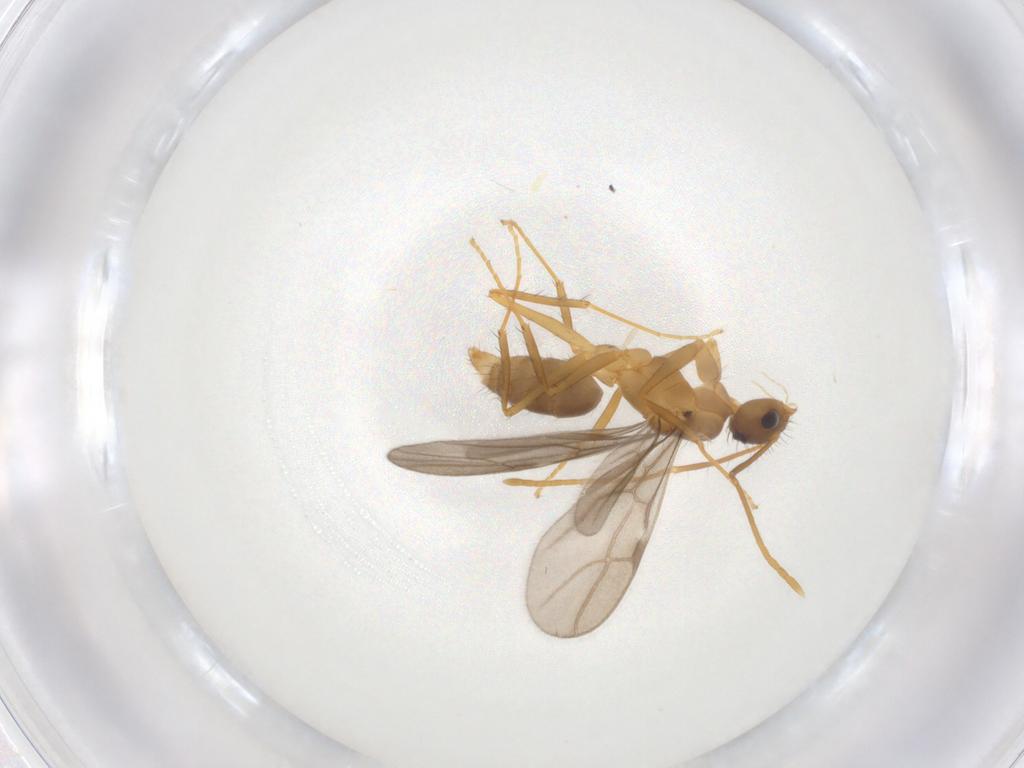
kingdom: Animalia
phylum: Arthropoda
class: Insecta
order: Hymenoptera
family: Formicidae
